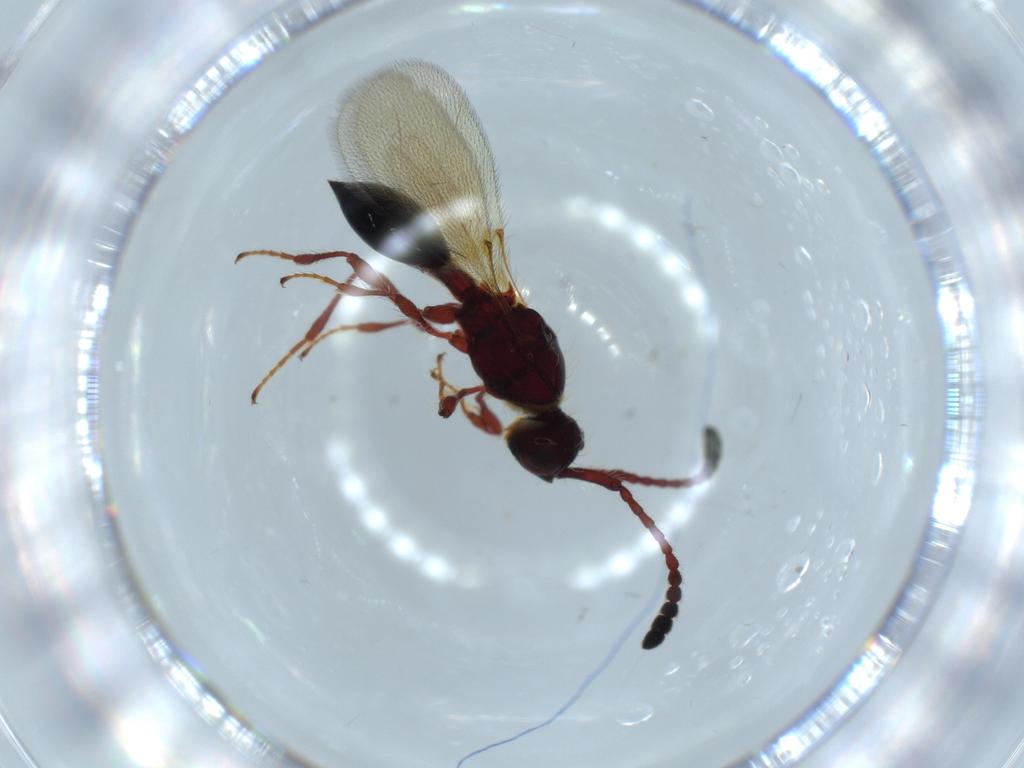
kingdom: Animalia
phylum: Arthropoda
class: Insecta
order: Hymenoptera
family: Diapriidae
